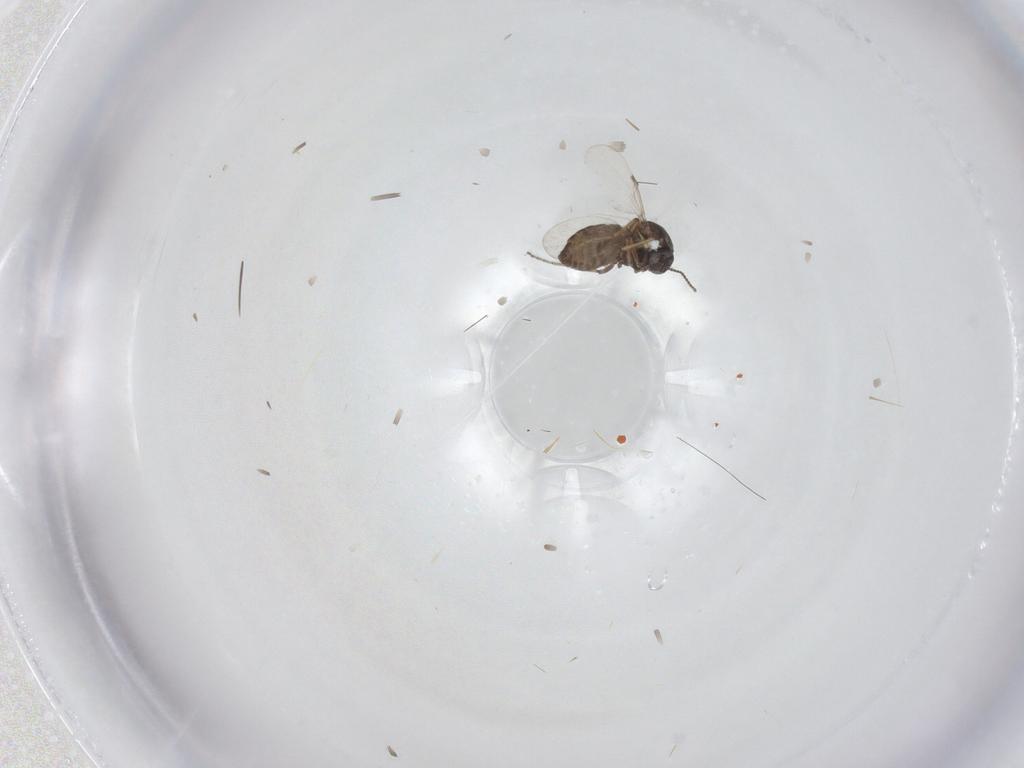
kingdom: Animalia
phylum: Arthropoda
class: Insecta
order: Diptera
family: Ceratopogonidae
